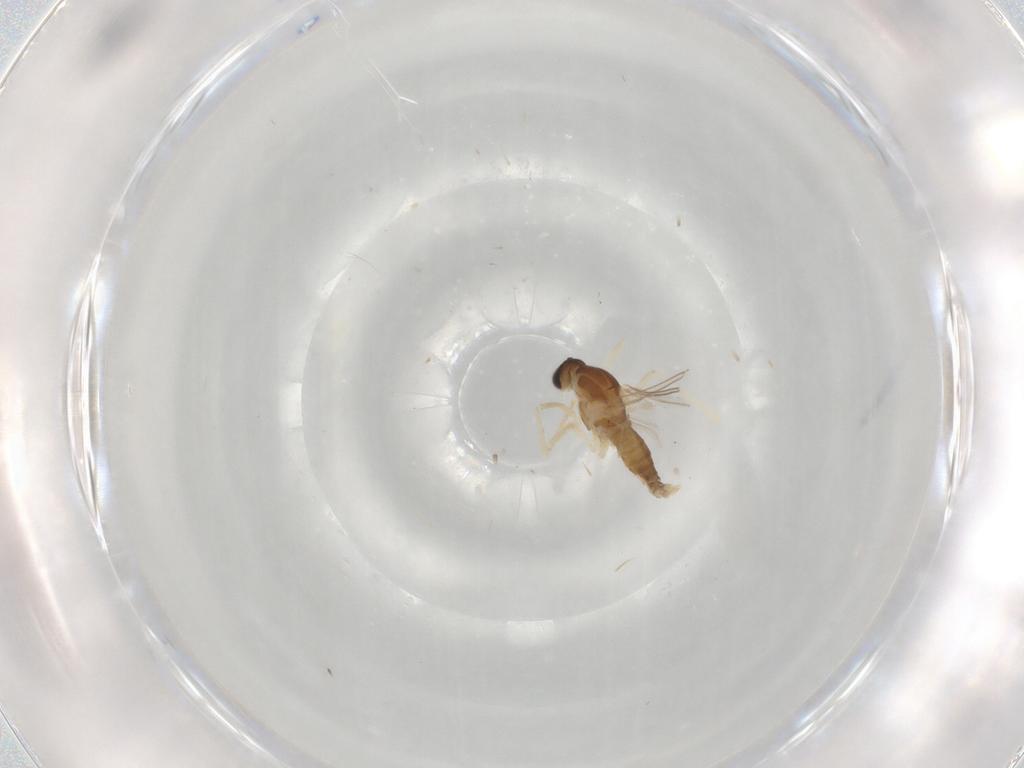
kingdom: Animalia
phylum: Arthropoda
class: Insecta
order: Diptera
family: Cecidomyiidae
